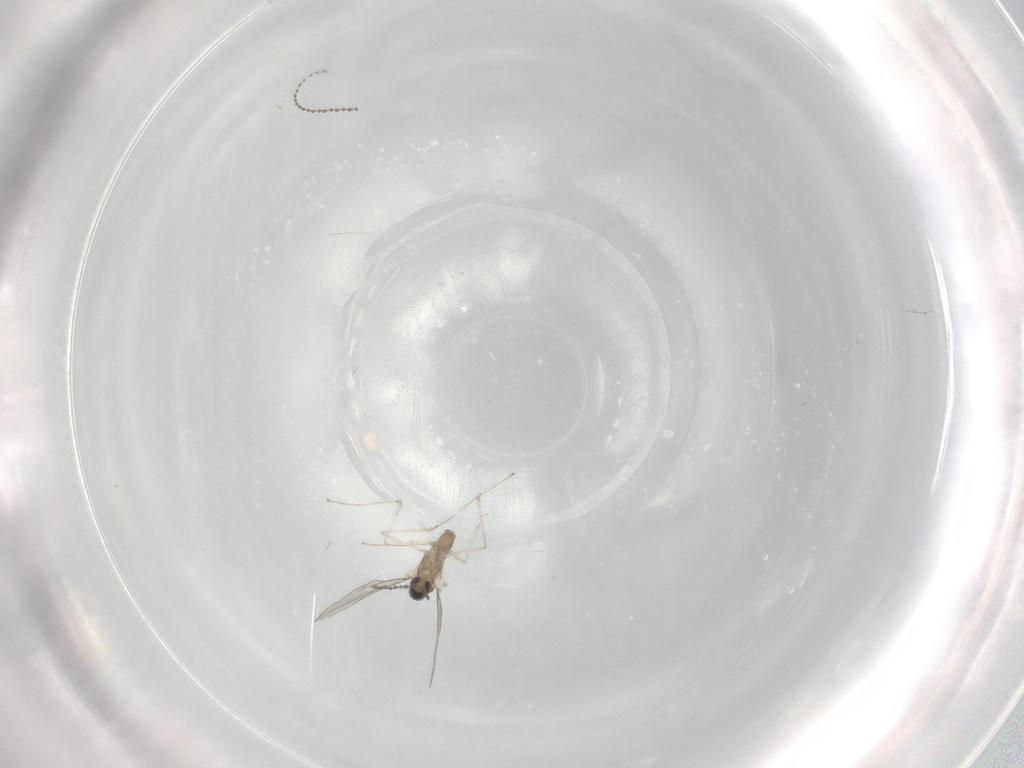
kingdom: Animalia
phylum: Arthropoda
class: Insecta
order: Diptera
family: Cecidomyiidae
